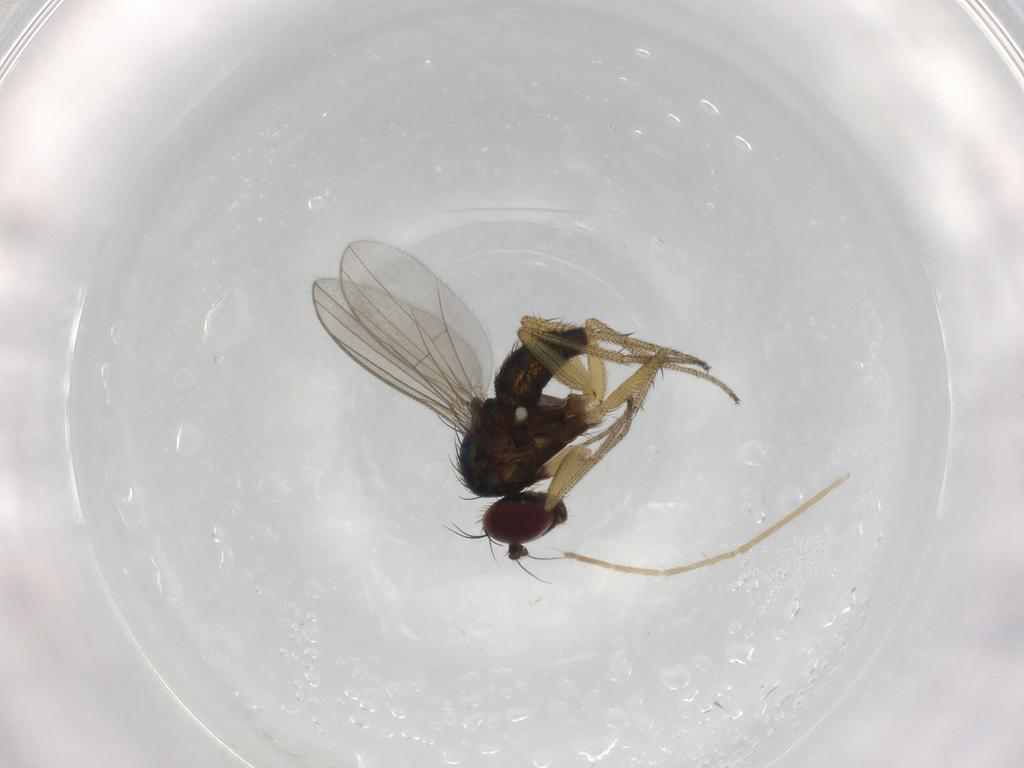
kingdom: Animalia
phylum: Arthropoda
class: Insecta
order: Diptera
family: Chironomidae
